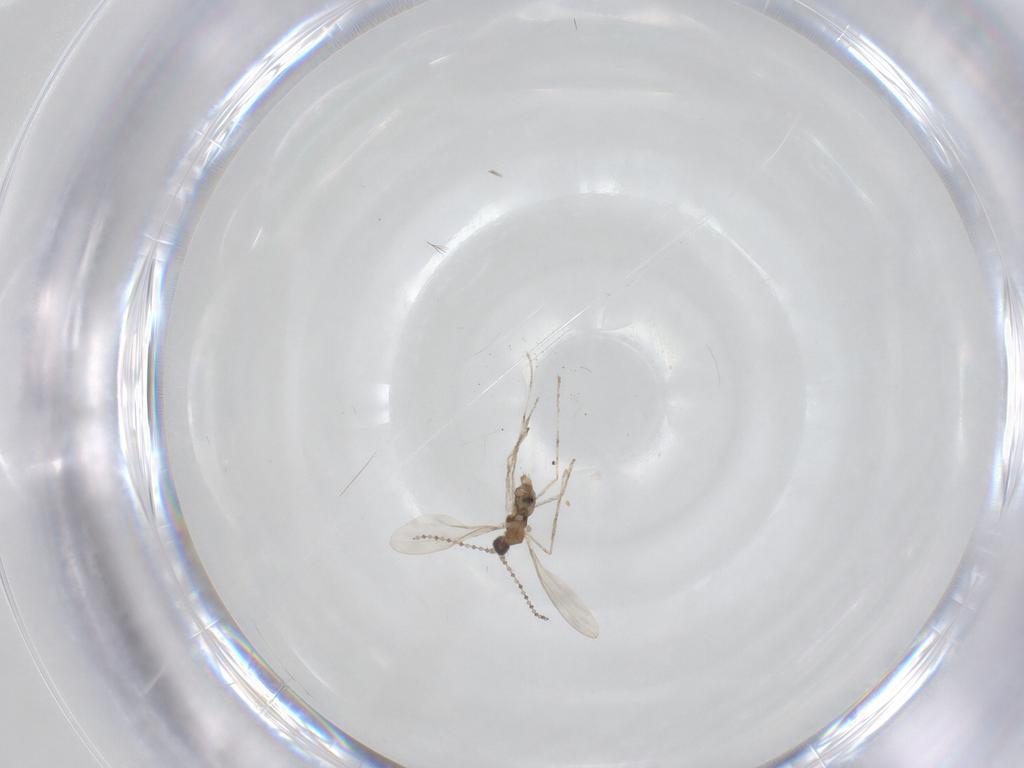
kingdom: Animalia
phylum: Arthropoda
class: Insecta
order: Diptera
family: Cecidomyiidae
